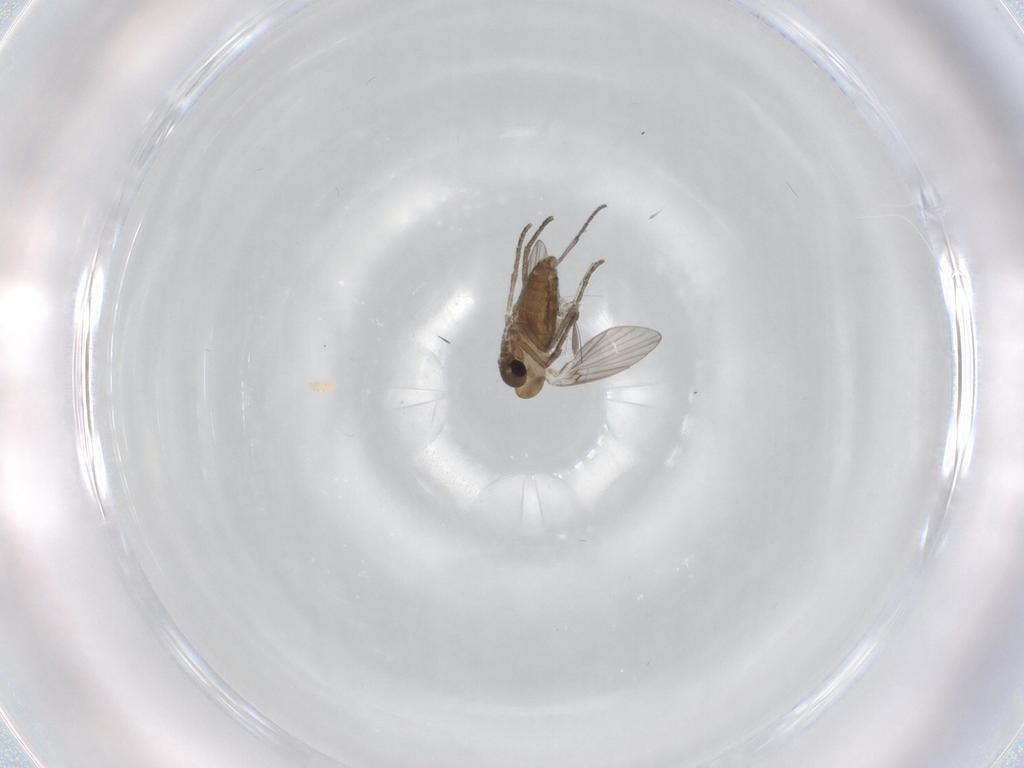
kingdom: Animalia
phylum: Arthropoda
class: Insecta
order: Diptera
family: Sciaridae
